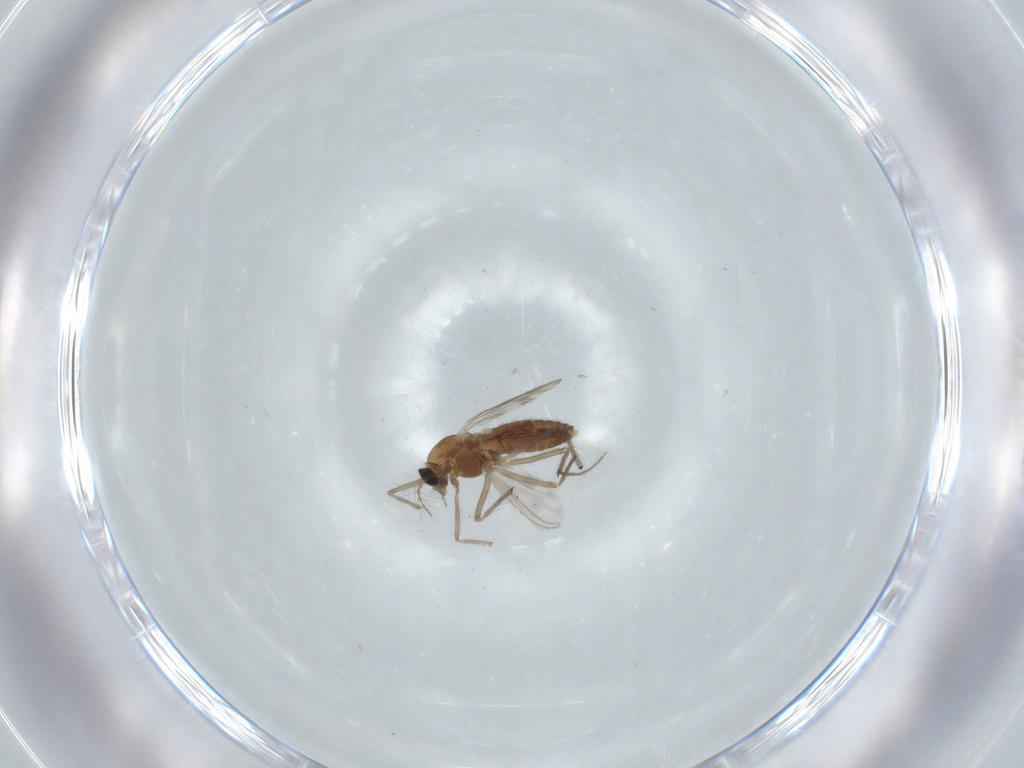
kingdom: Animalia
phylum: Arthropoda
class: Insecta
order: Diptera
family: Chironomidae
